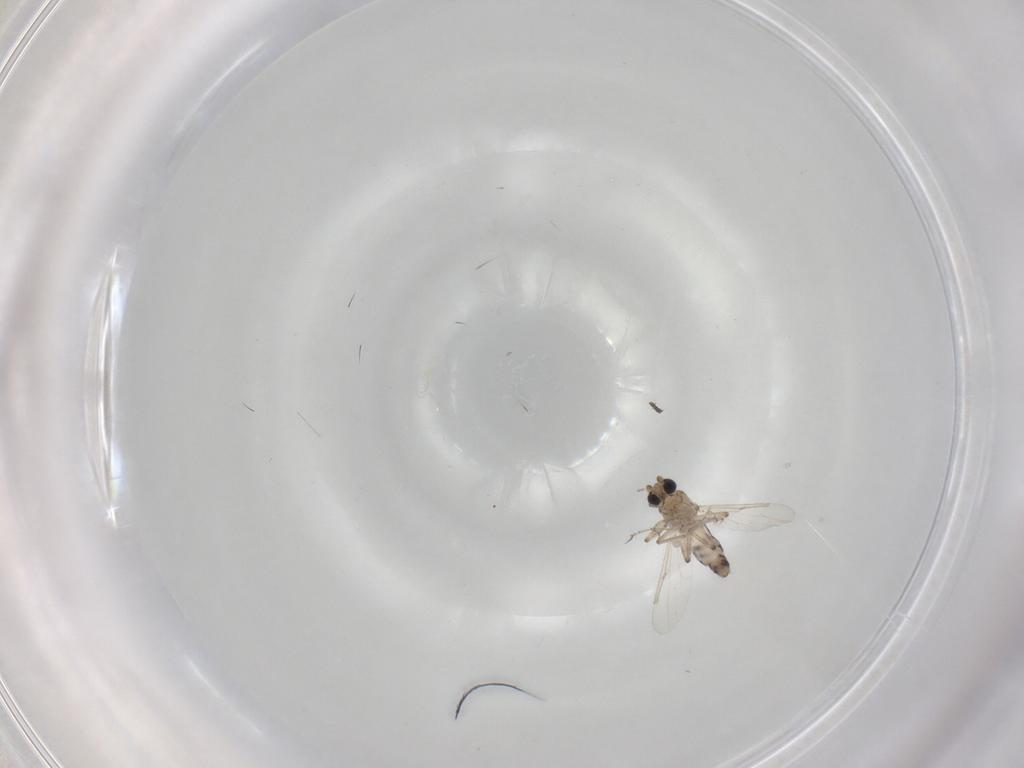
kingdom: Animalia
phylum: Arthropoda
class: Insecta
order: Diptera
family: Ceratopogonidae
